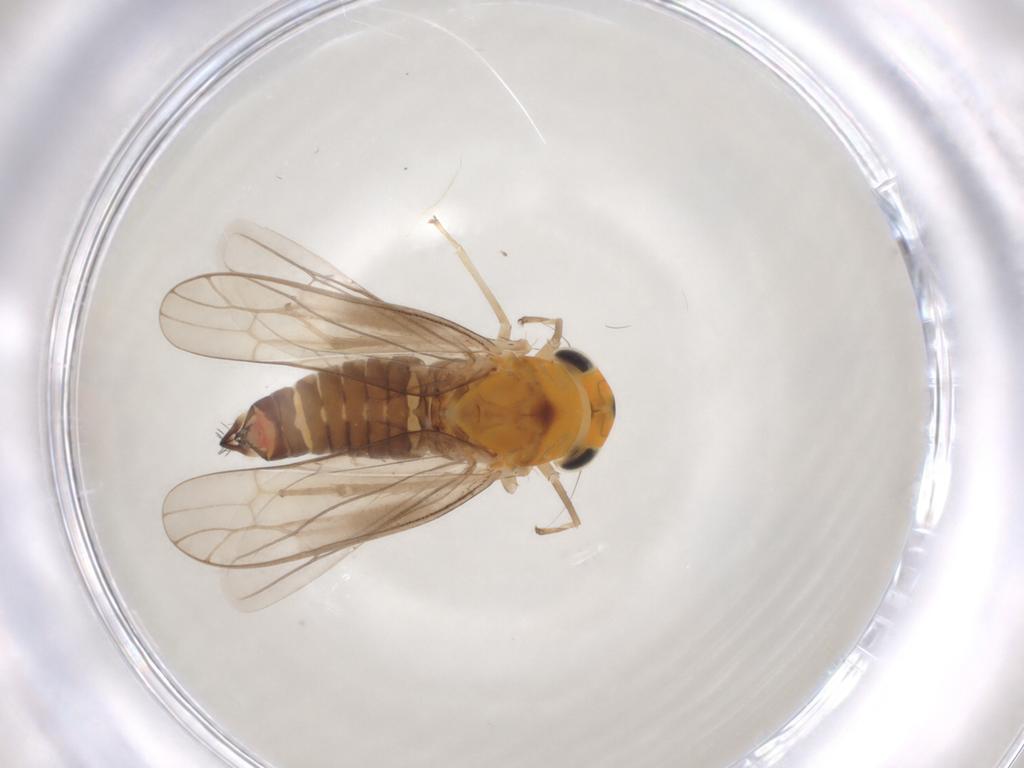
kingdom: Animalia
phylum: Arthropoda
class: Insecta
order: Hemiptera
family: Cicadellidae
